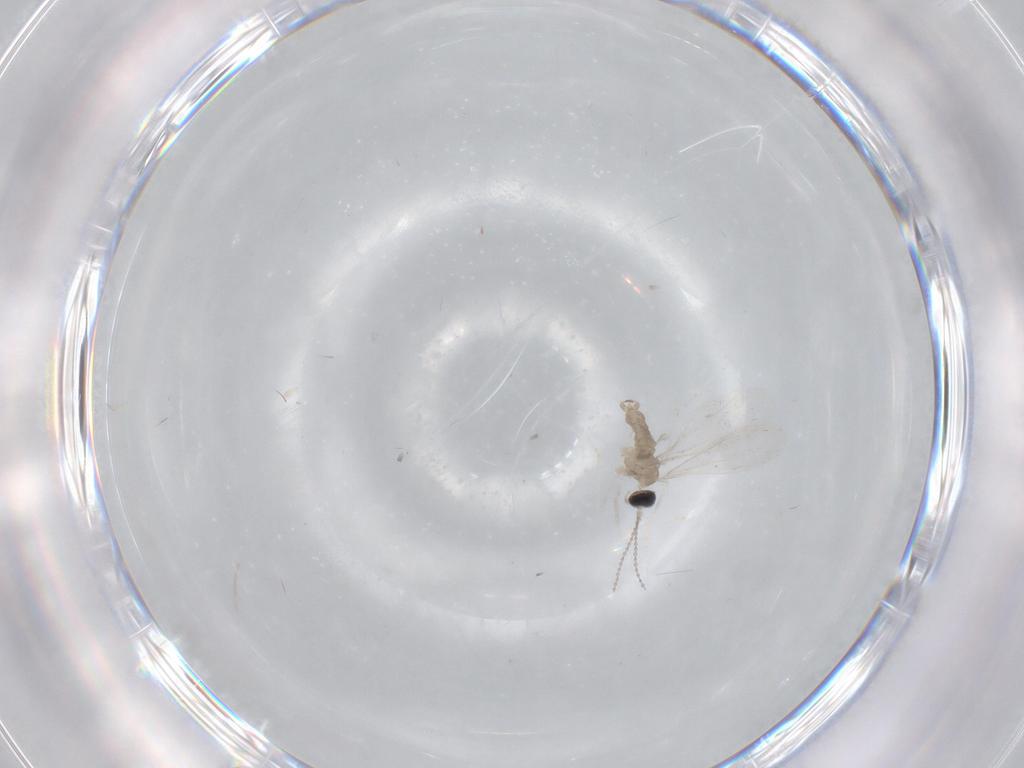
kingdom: Animalia
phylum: Arthropoda
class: Insecta
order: Diptera
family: Cecidomyiidae
